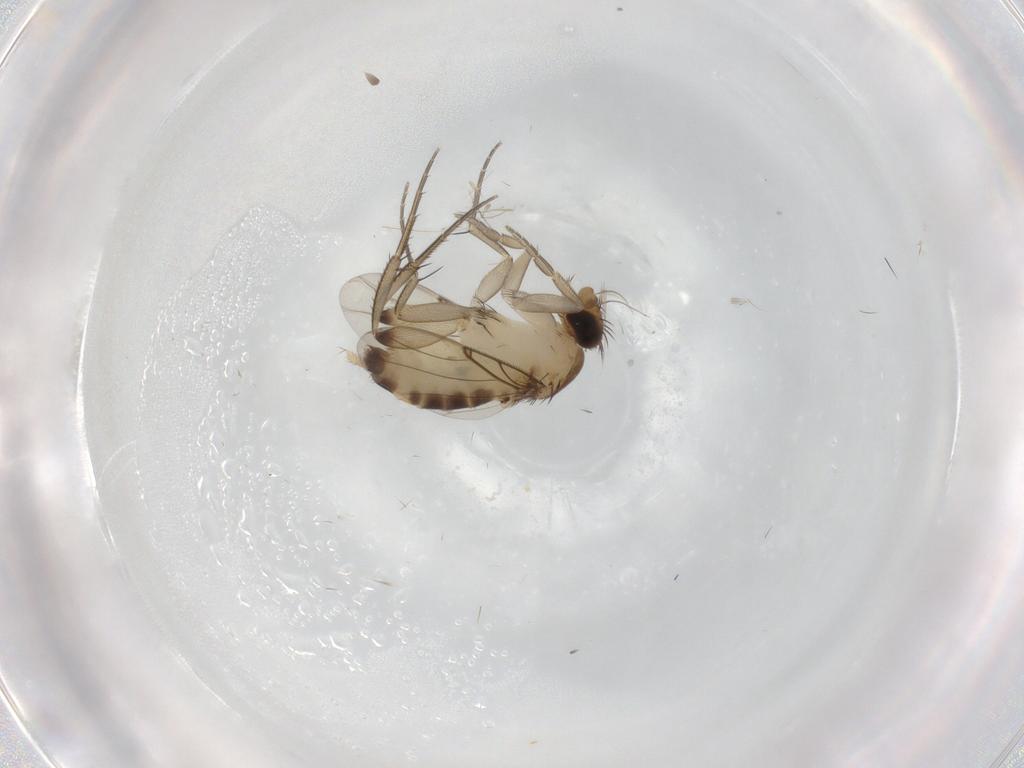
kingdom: Animalia
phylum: Arthropoda
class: Insecta
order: Diptera
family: Phoridae
